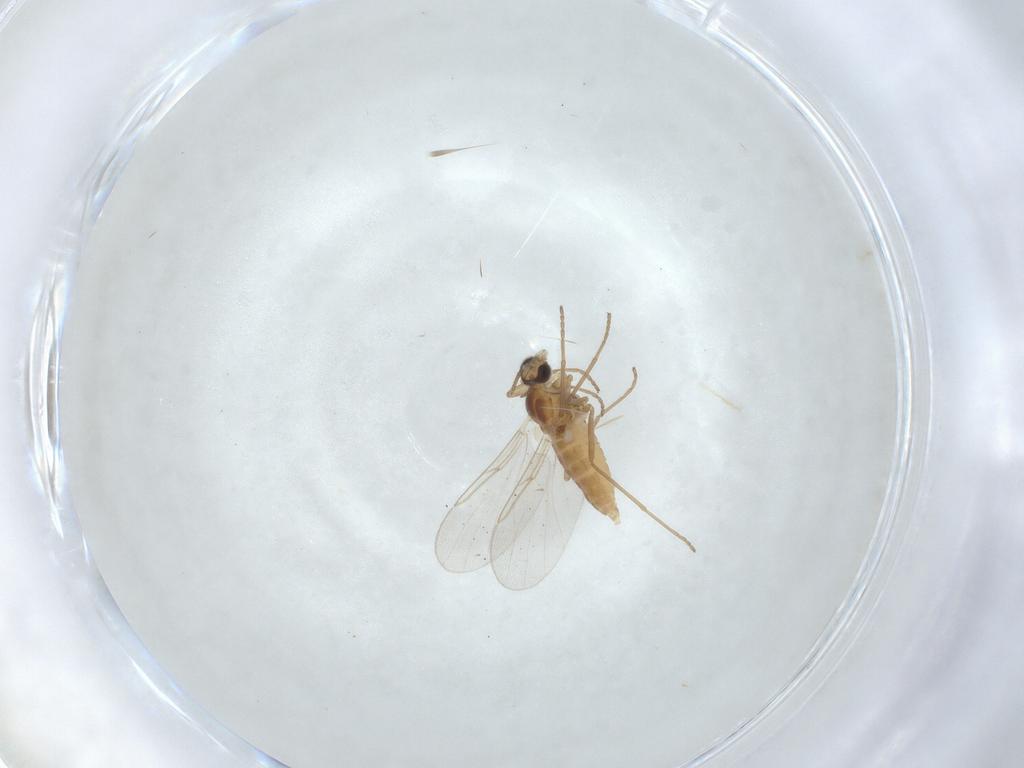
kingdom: Animalia
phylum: Arthropoda
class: Insecta
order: Diptera
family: Cecidomyiidae
